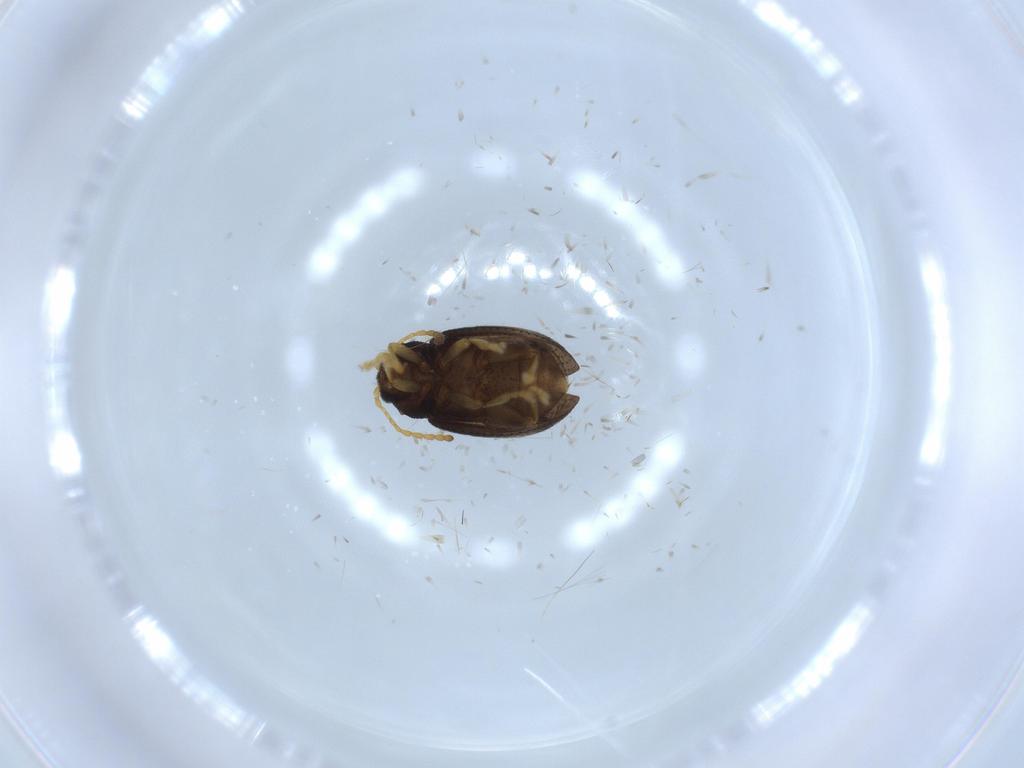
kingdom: Animalia
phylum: Arthropoda
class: Insecta
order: Coleoptera
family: Chrysomelidae
